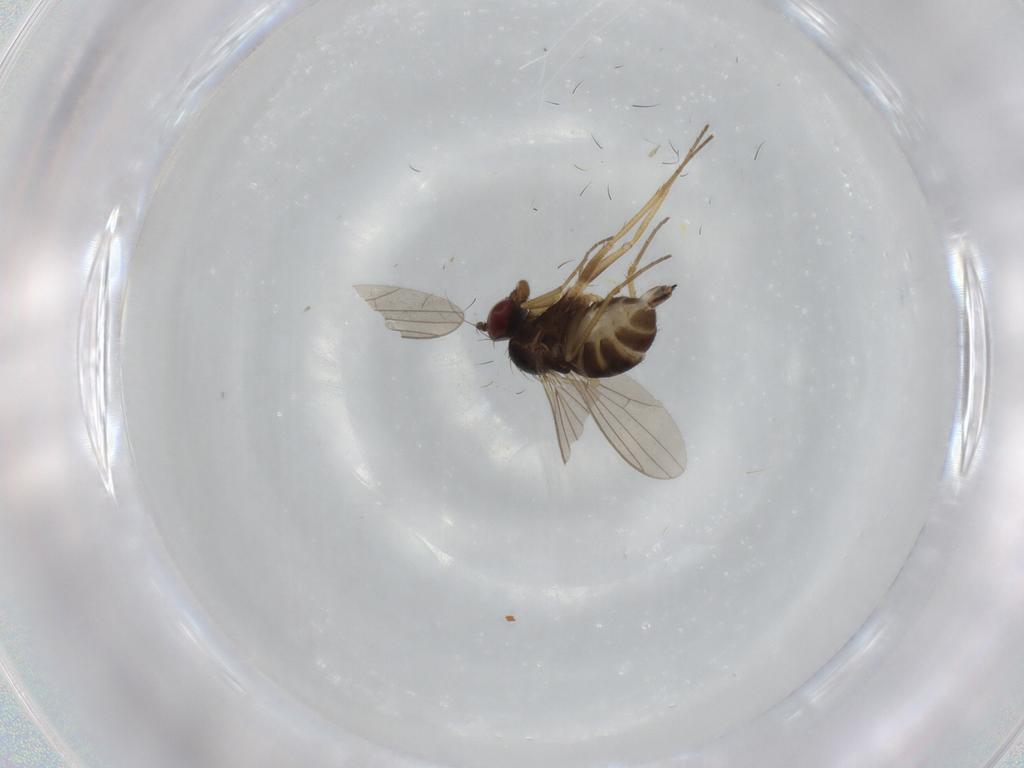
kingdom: Animalia
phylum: Arthropoda
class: Insecta
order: Diptera
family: Dolichopodidae
